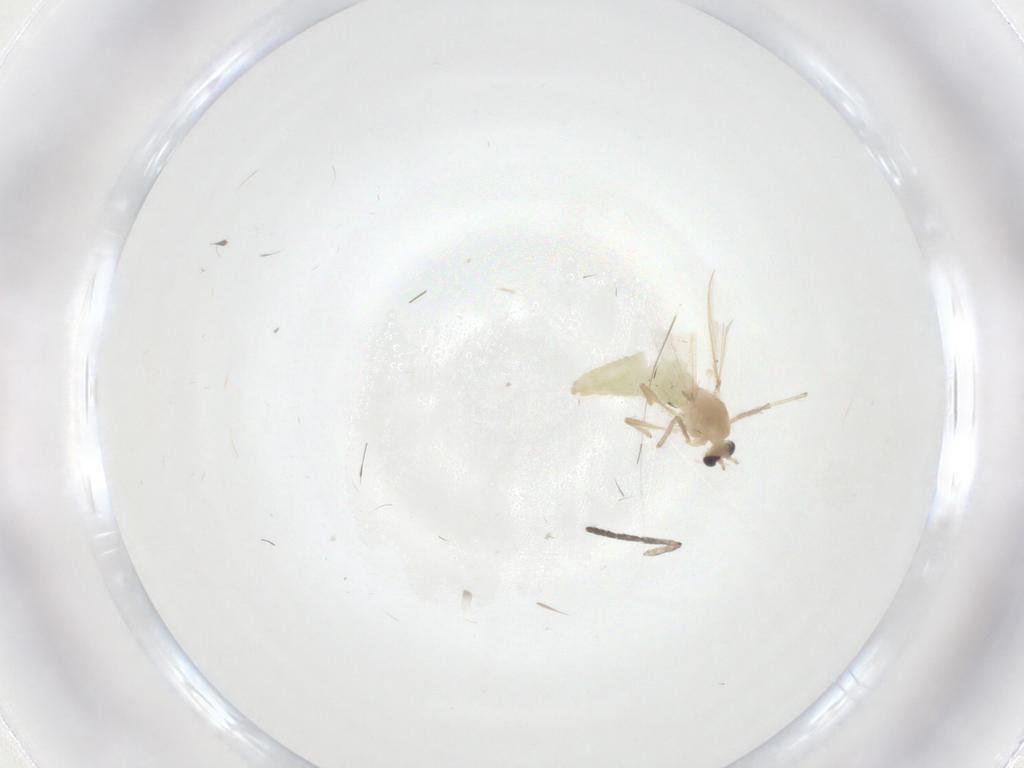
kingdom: Animalia
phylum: Arthropoda
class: Insecta
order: Diptera
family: Chironomidae
